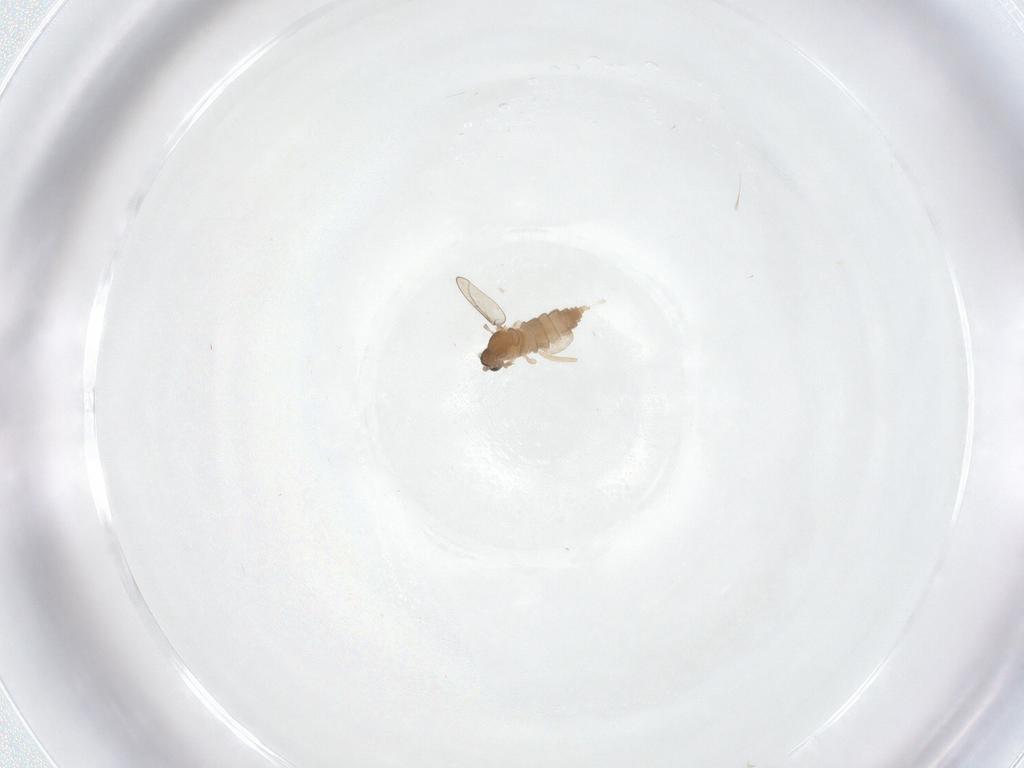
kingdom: Animalia
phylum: Arthropoda
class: Insecta
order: Diptera
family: Cecidomyiidae
